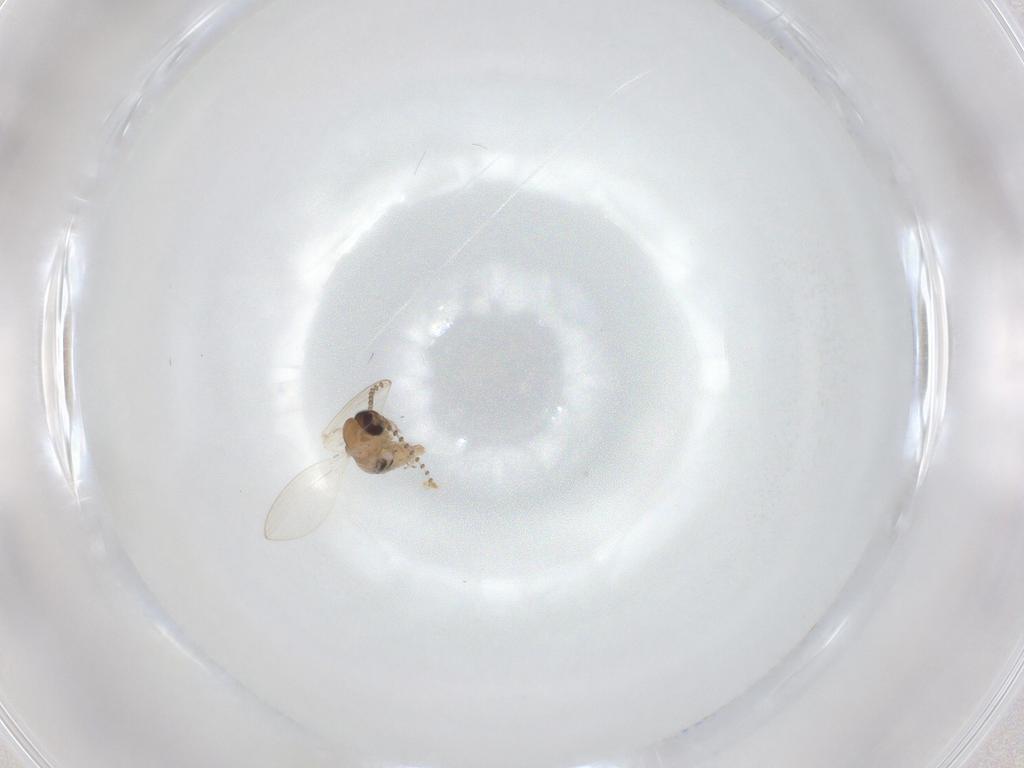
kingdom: Animalia
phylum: Arthropoda
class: Insecta
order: Diptera
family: Psychodidae
